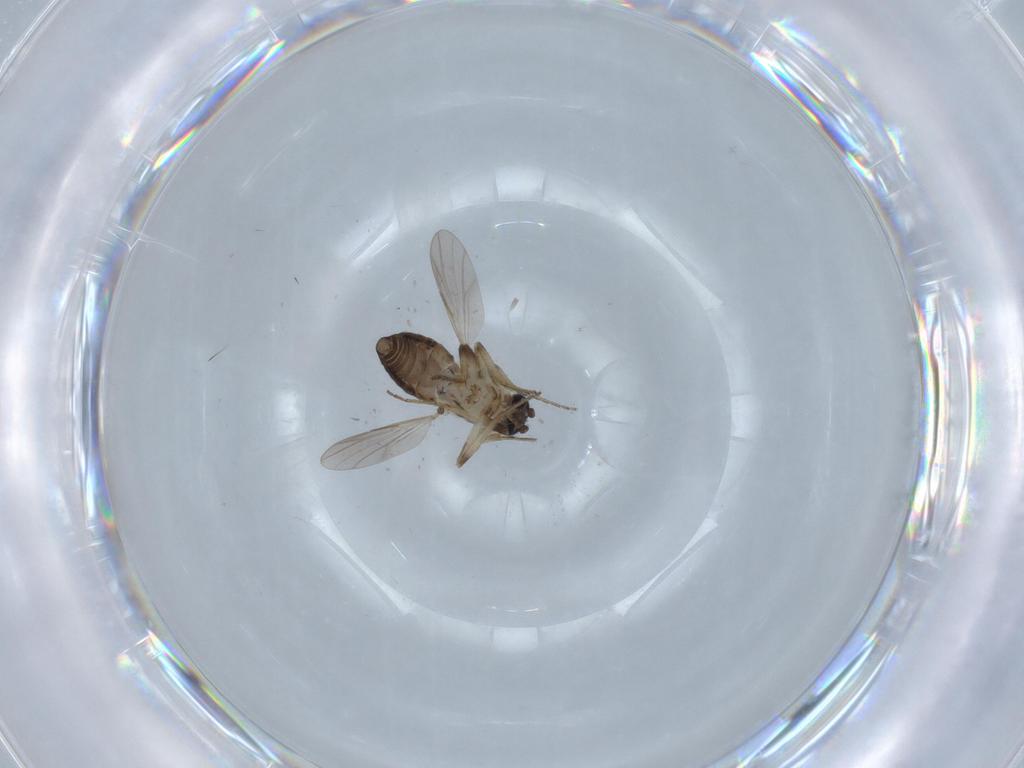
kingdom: Animalia
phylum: Arthropoda
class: Insecta
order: Diptera
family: Ceratopogonidae
